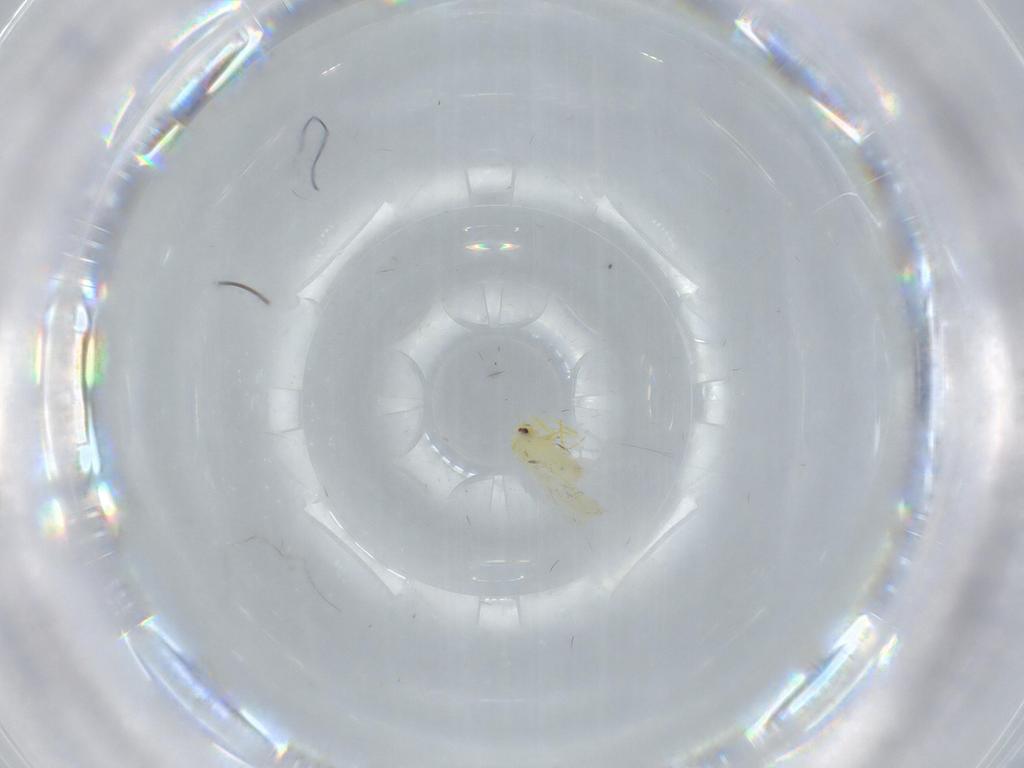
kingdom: Animalia
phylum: Arthropoda
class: Insecta
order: Hemiptera
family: Aleyrodidae
